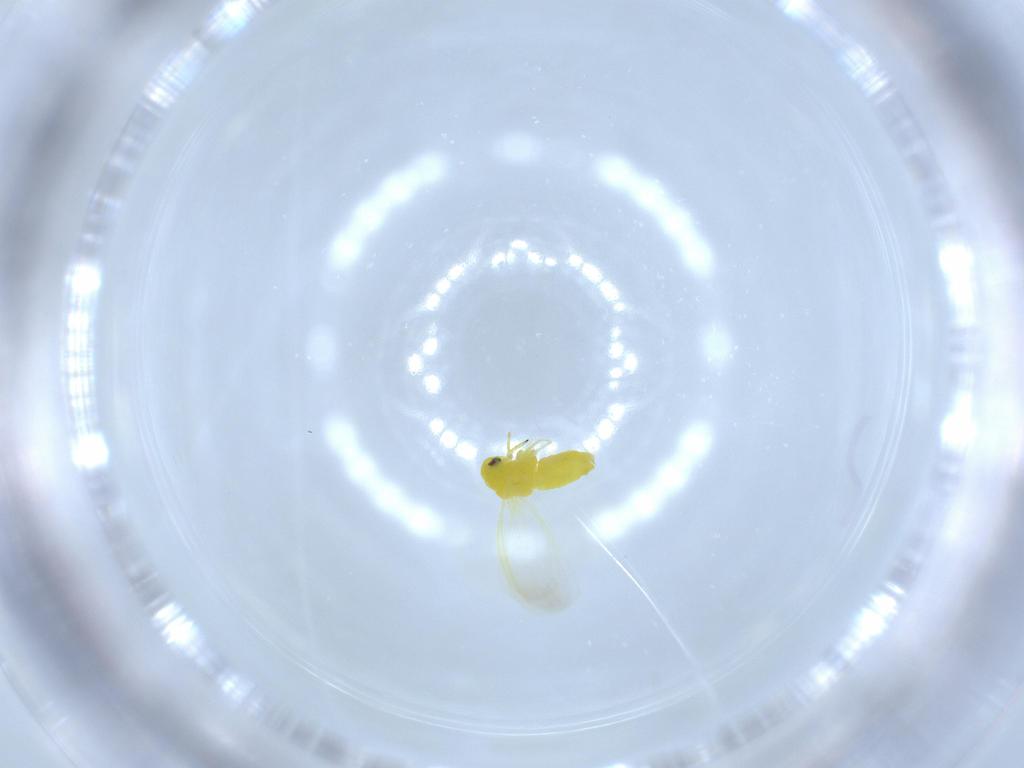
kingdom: Animalia
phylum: Arthropoda
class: Insecta
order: Hemiptera
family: Aleyrodidae
